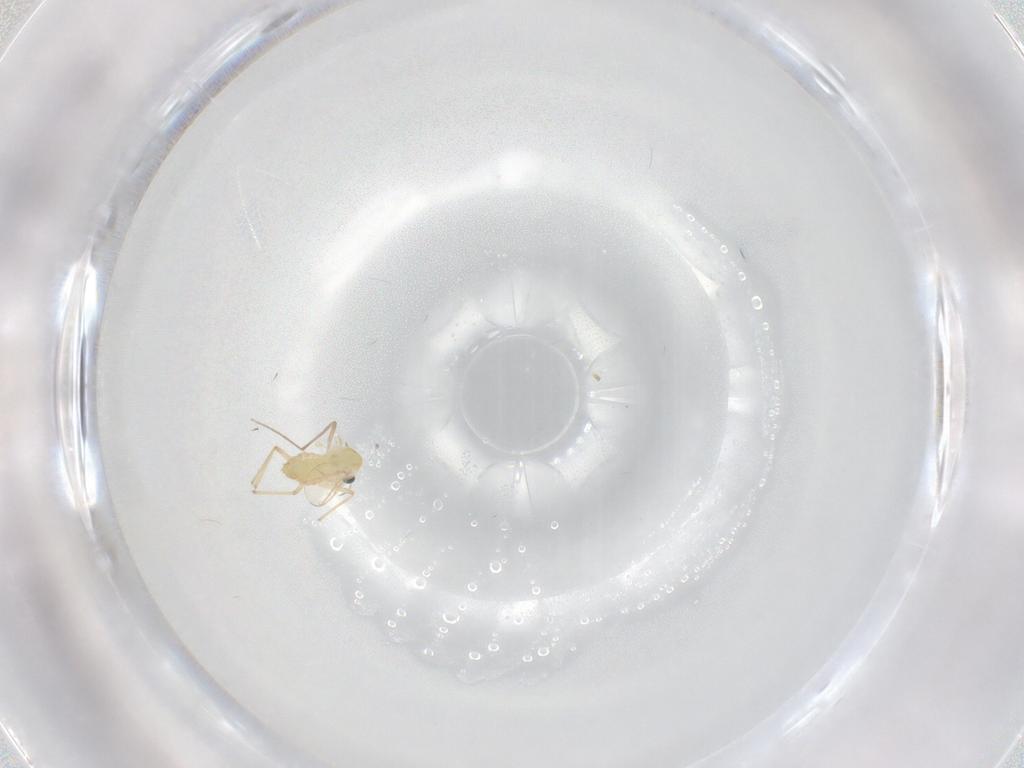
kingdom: Animalia
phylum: Arthropoda
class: Insecta
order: Diptera
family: Chironomidae
